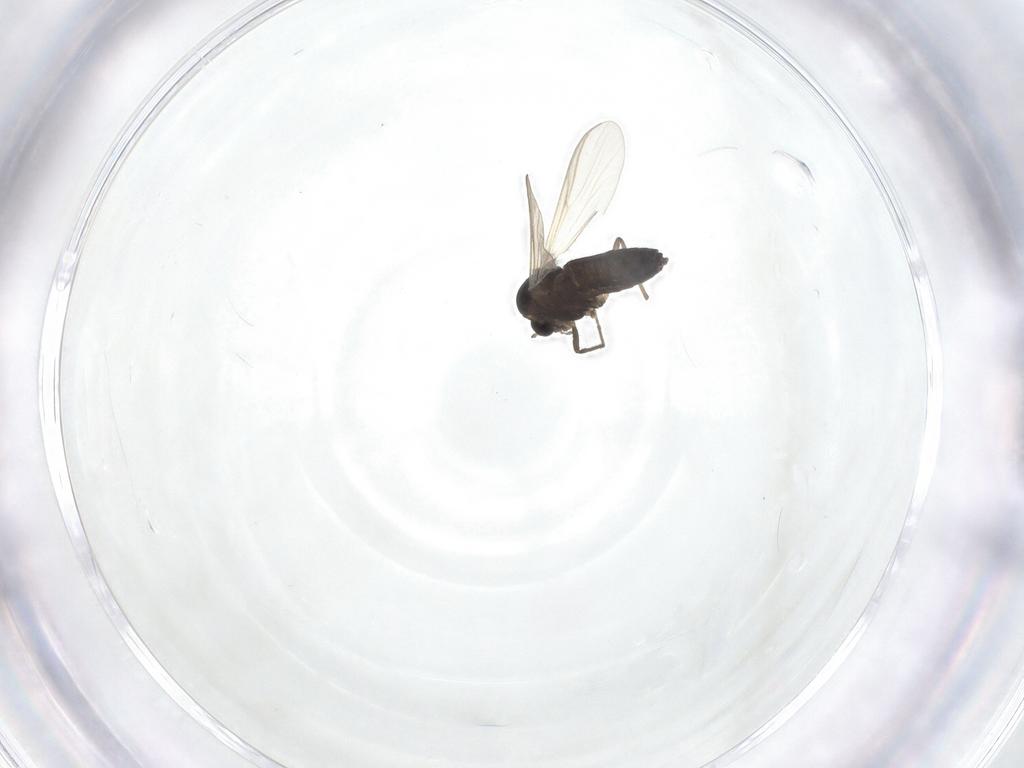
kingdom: Animalia
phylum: Arthropoda
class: Insecta
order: Diptera
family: Chironomidae
